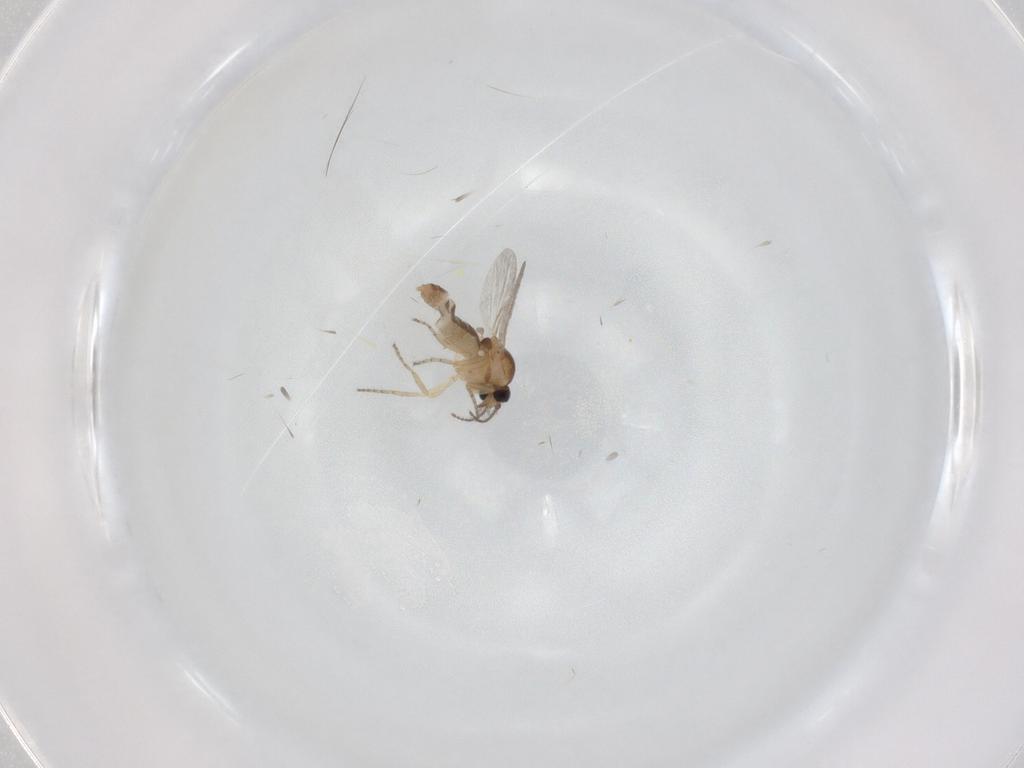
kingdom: Animalia
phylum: Arthropoda
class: Insecta
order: Diptera
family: Ceratopogonidae
